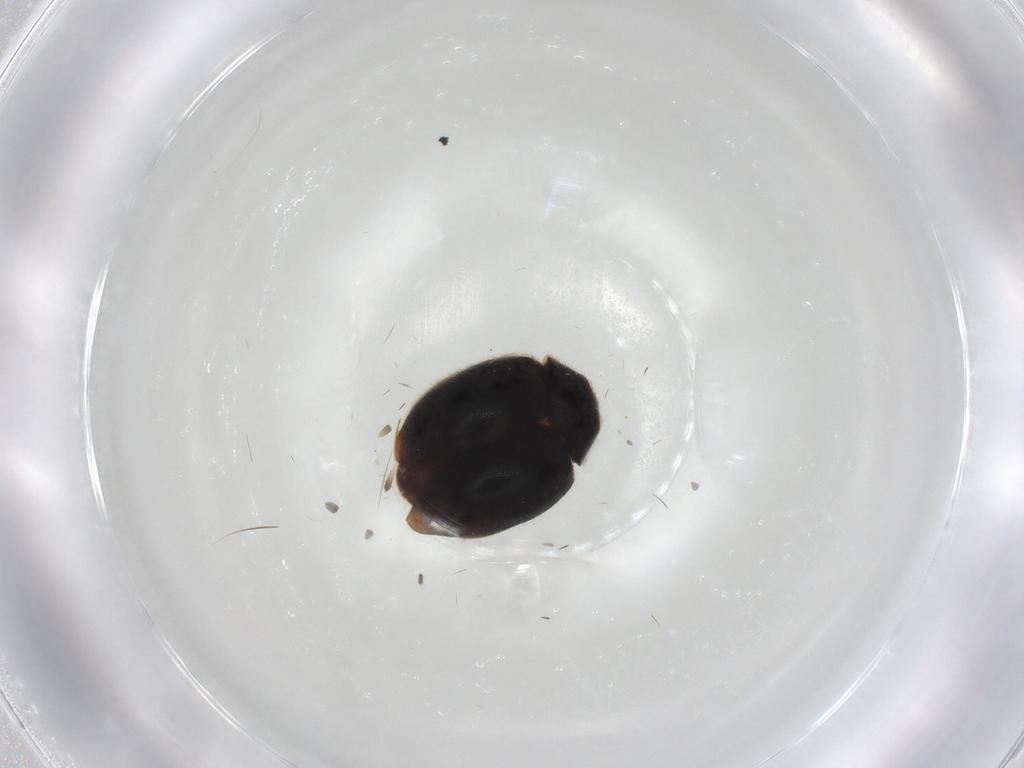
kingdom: Animalia
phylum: Arthropoda
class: Insecta
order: Coleoptera
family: Coccinellidae
